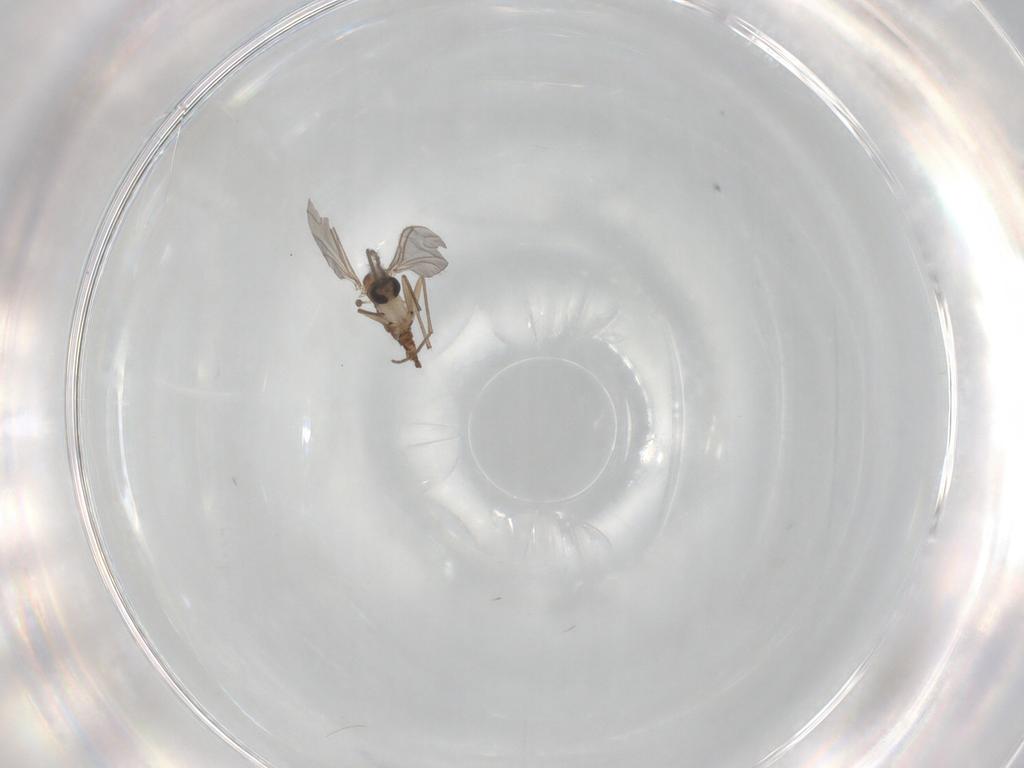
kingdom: Animalia
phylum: Arthropoda
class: Insecta
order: Diptera
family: Sciaridae
